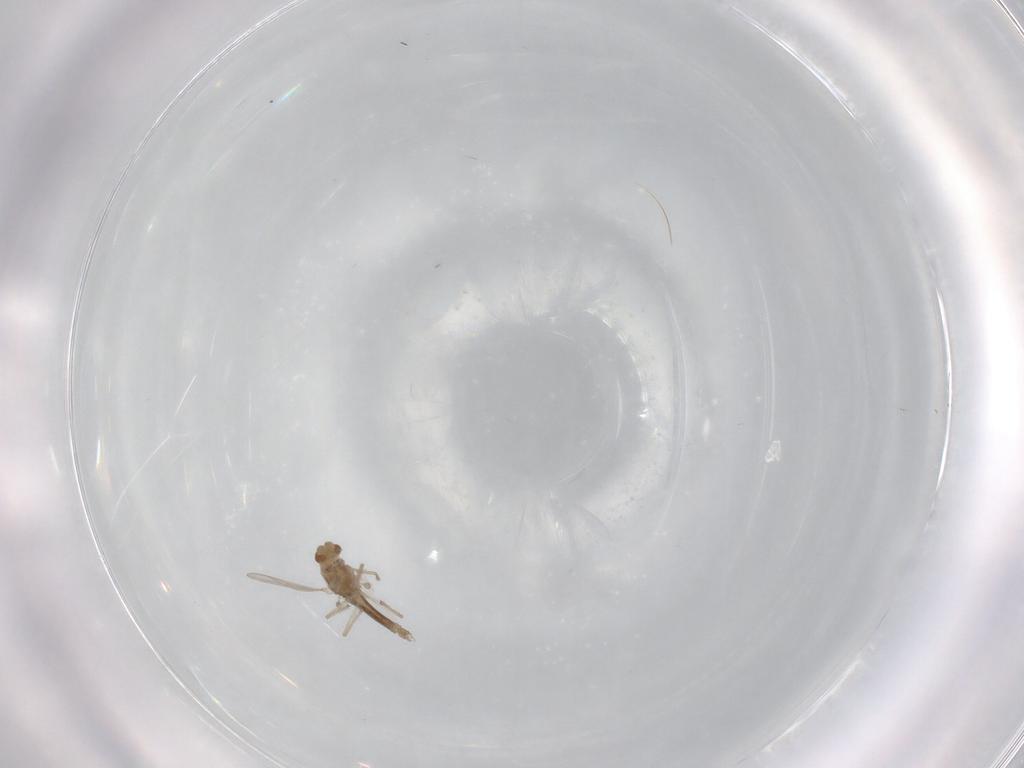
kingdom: Animalia
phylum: Arthropoda
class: Insecta
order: Diptera
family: Chironomidae
